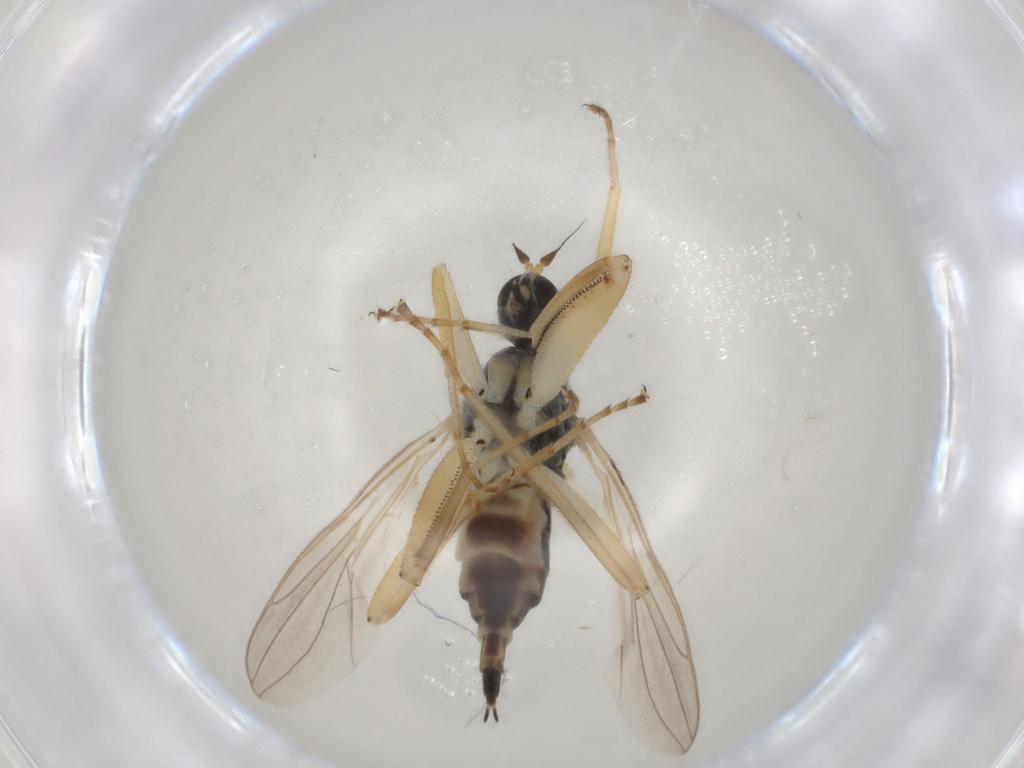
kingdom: Animalia
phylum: Arthropoda
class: Insecta
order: Diptera
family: Hybotidae
